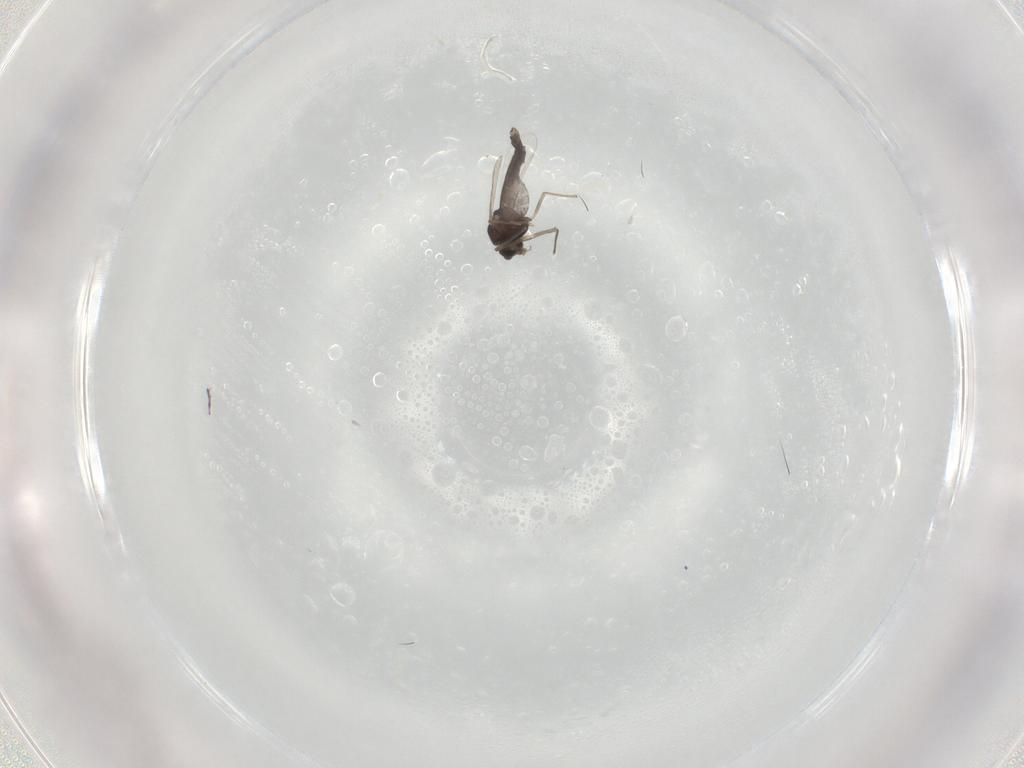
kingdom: Animalia
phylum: Arthropoda
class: Insecta
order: Diptera
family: Chironomidae
